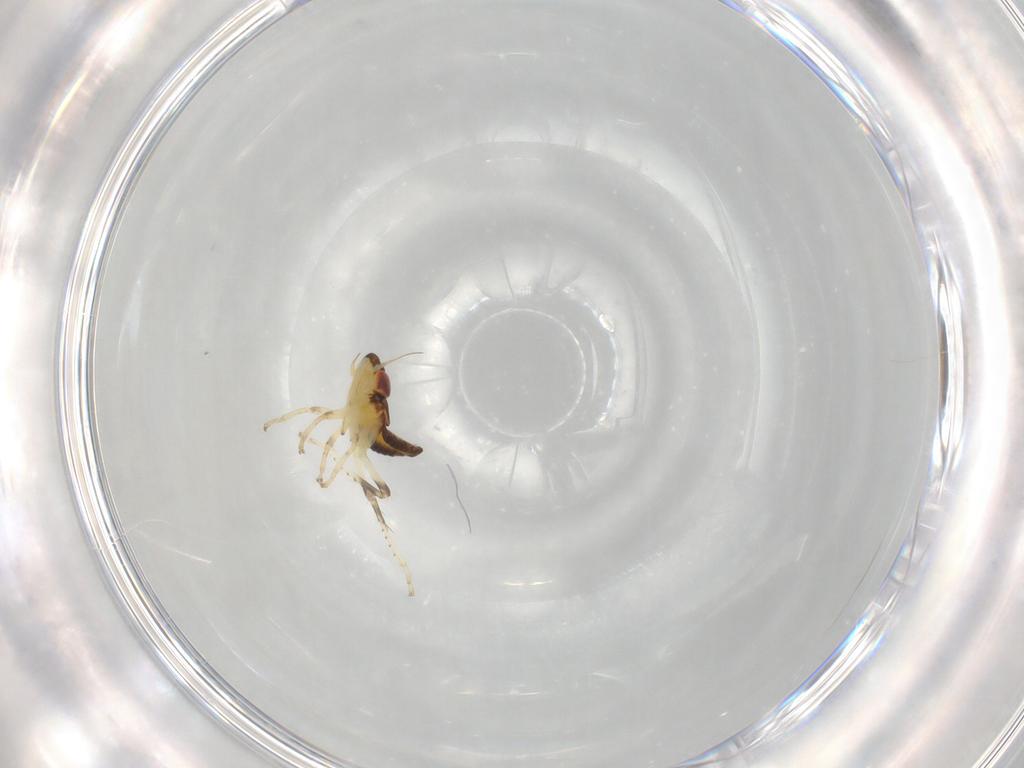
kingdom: Animalia
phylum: Arthropoda
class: Insecta
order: Hemiptera
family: Cicadellidae
